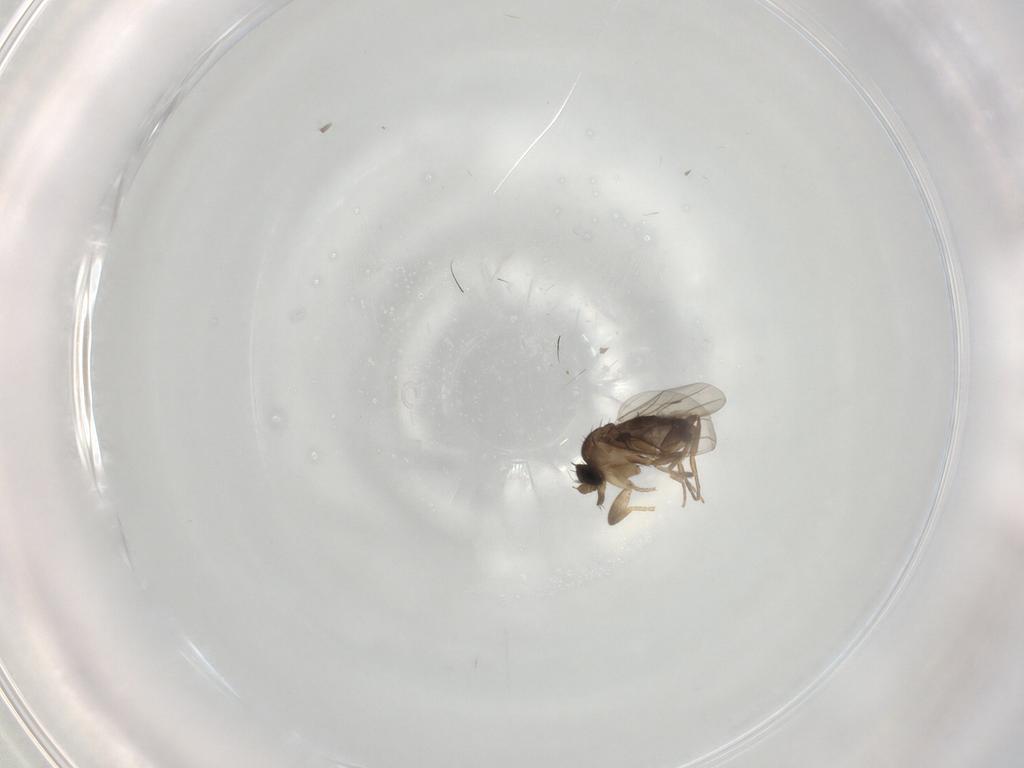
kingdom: Animalia
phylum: Arthropoda
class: Insecta
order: Diptera
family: Phoridae
